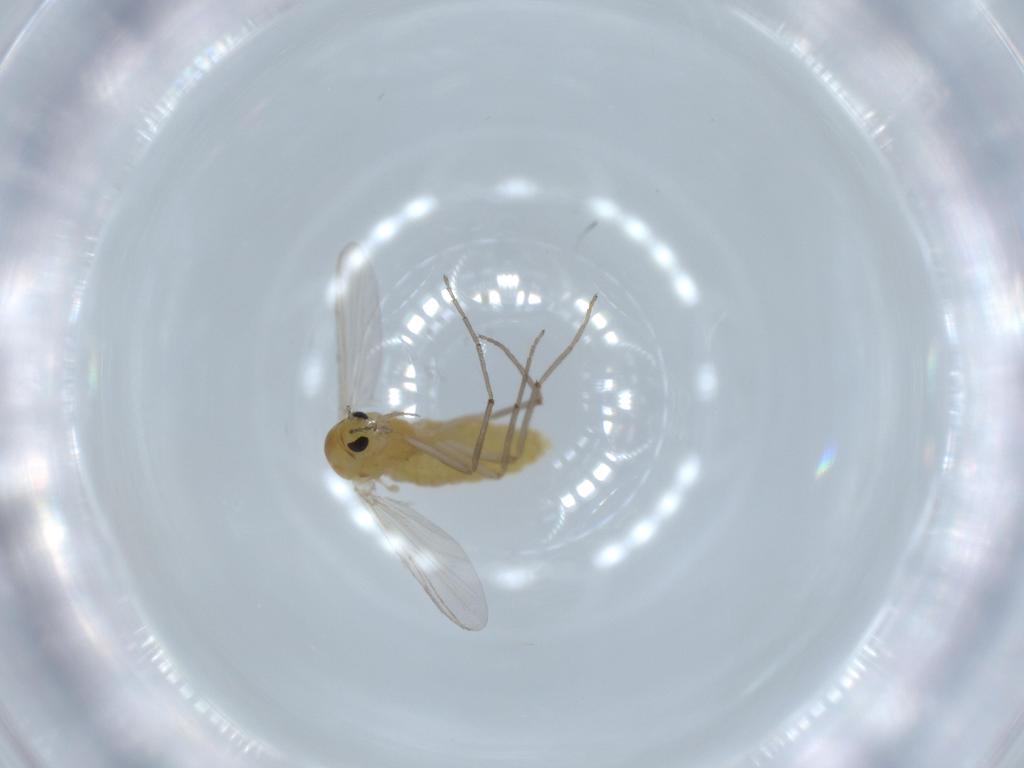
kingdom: Animalia
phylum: Arthropoda
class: Insecta
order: Diptera
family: Chironomidae
